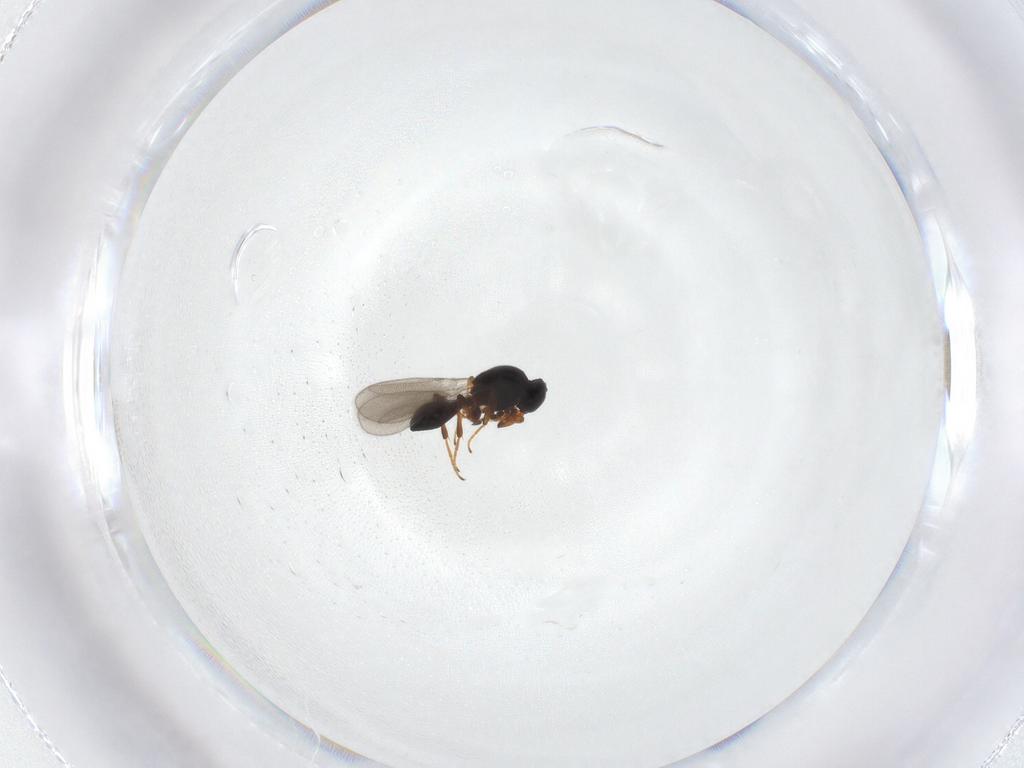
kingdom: Animalia
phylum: Arthropoda
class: Insecta
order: Hymenoptera
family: Platygastridae
